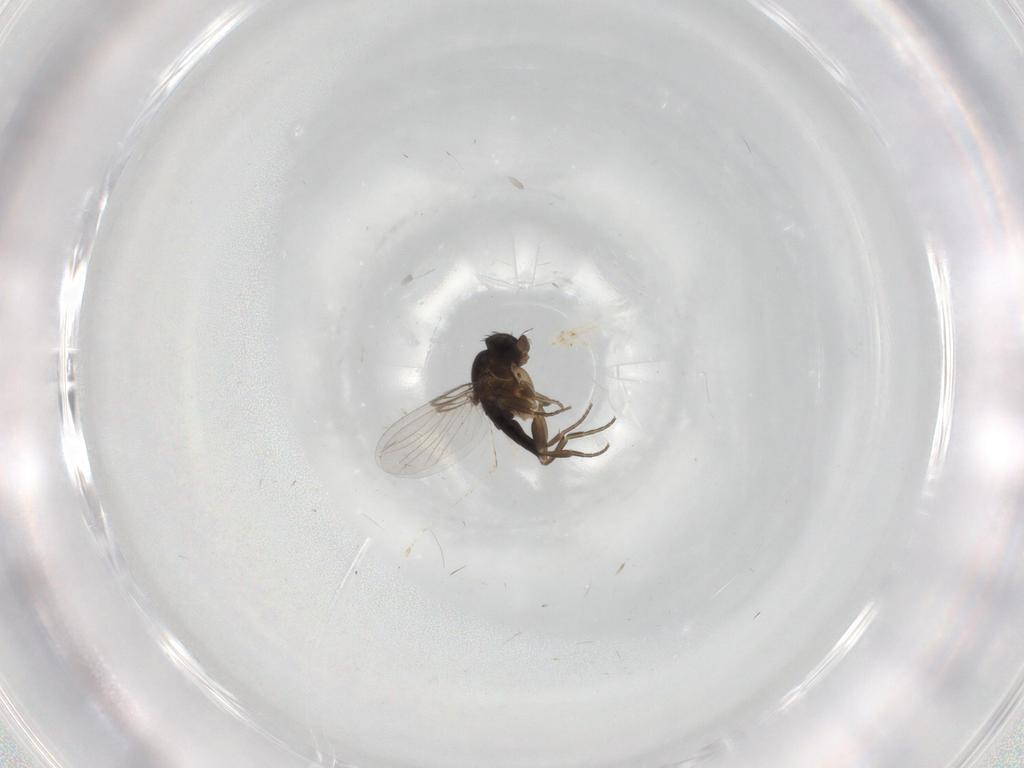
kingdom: Animalia
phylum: Arthropoda
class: Insecta
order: Diptera
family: Phoridae
